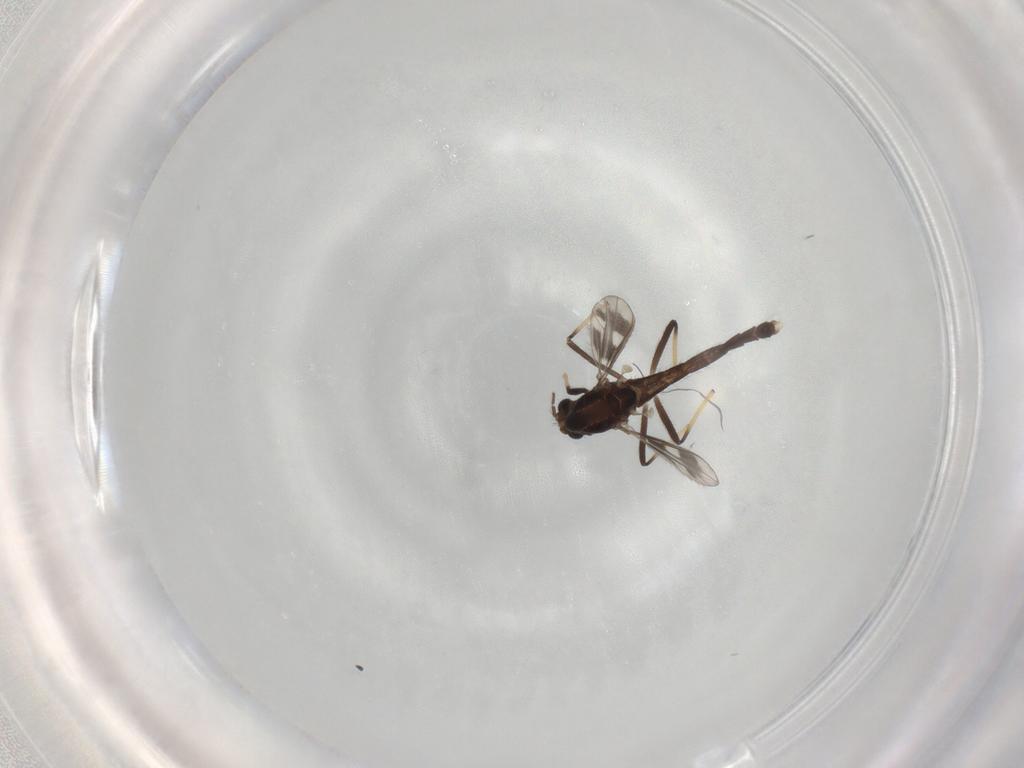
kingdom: Animalia
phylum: Arthropoda
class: Insecta
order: Diptera
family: Chironomidae
